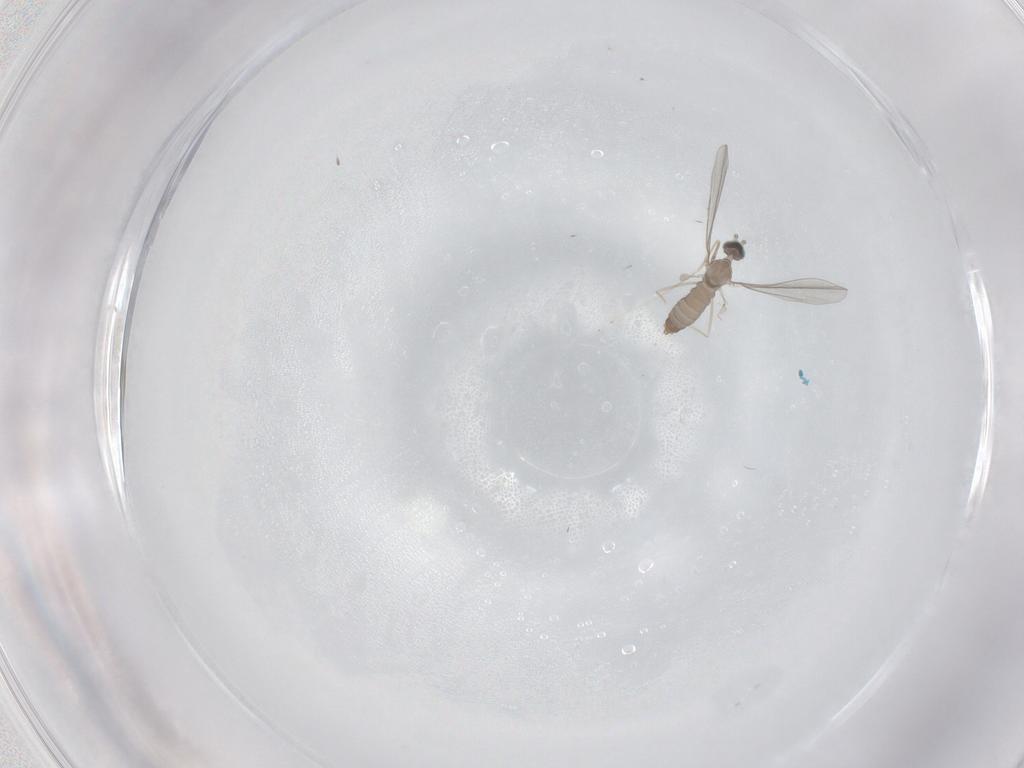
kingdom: Animalia
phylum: Arthropoda
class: Insecta
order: Diptera
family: Cecidomyiidae
